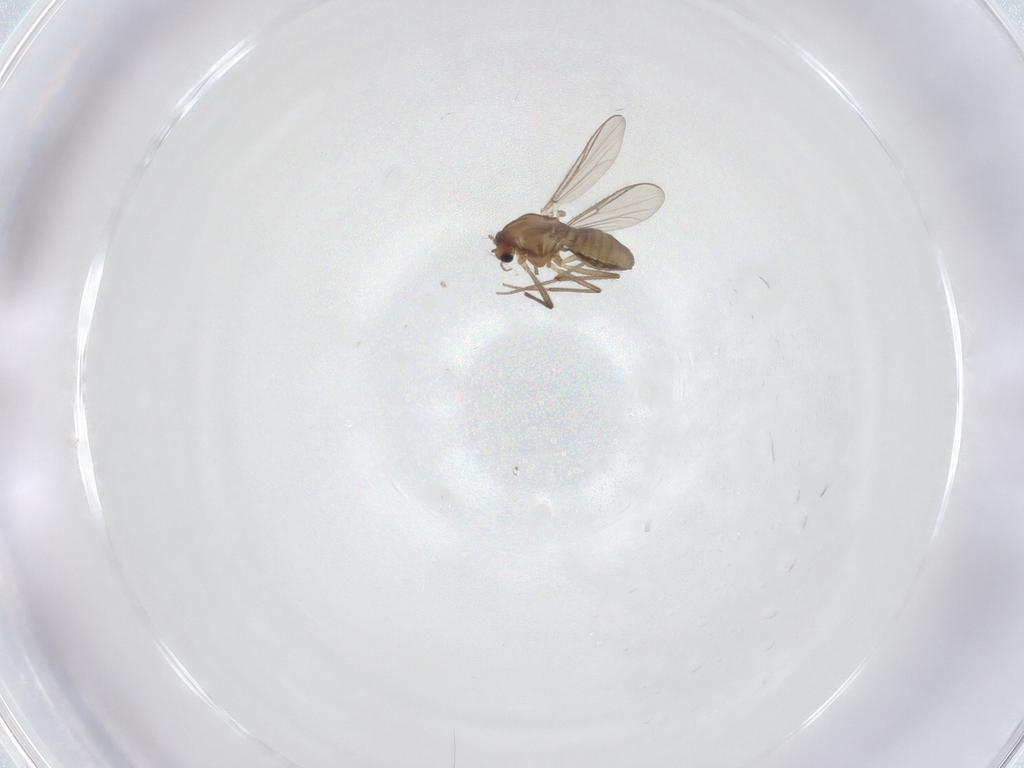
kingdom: Animalia
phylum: Arthropoda
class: Insecta
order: Diptera
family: Chironomidae
